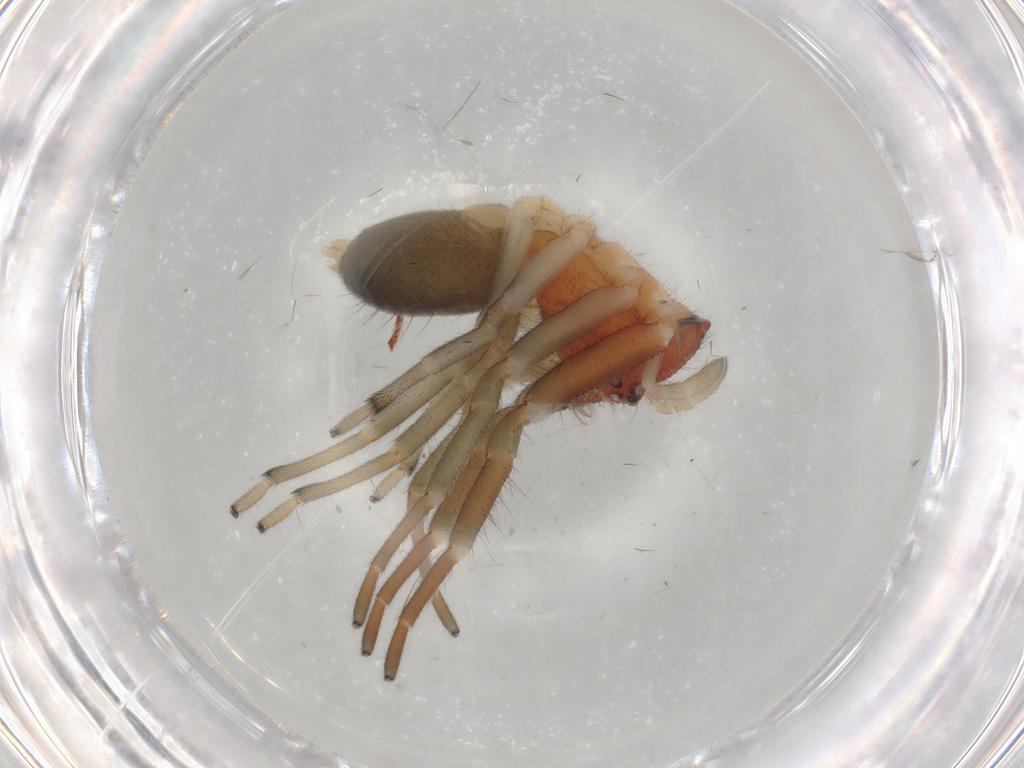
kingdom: Animalia
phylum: Arthropoda
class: Arachnida
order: Araneae
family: Trachelidae
